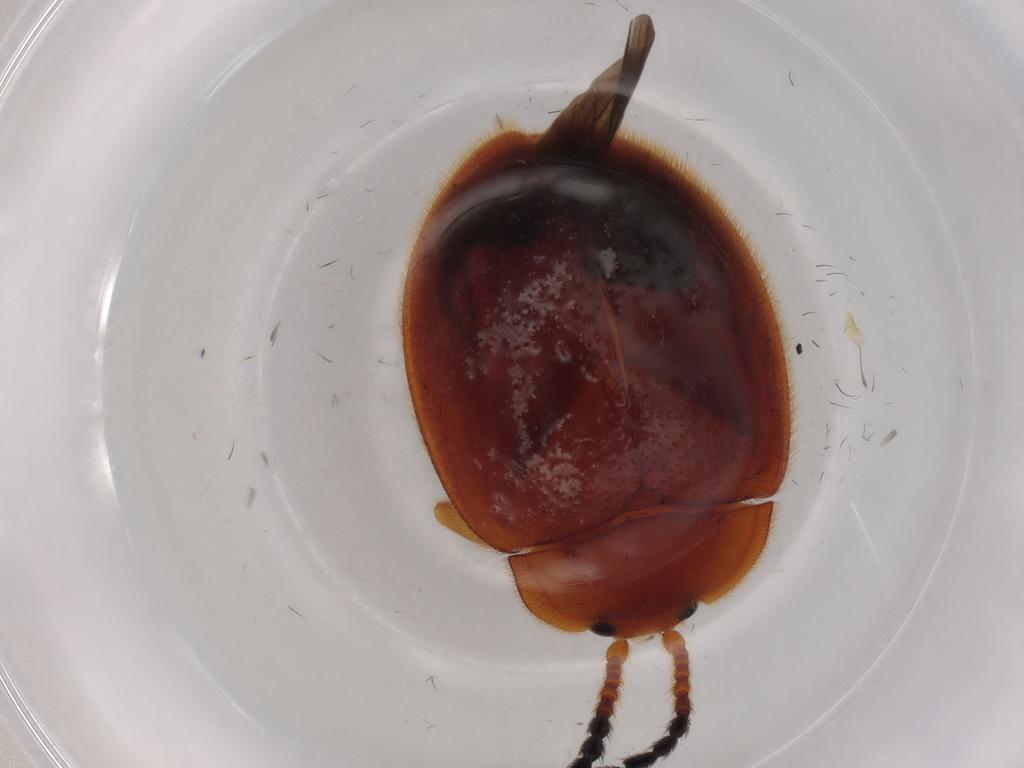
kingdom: Animalia
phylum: Arthropoda
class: Insecta
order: Coleoptera
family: Endomychidae
